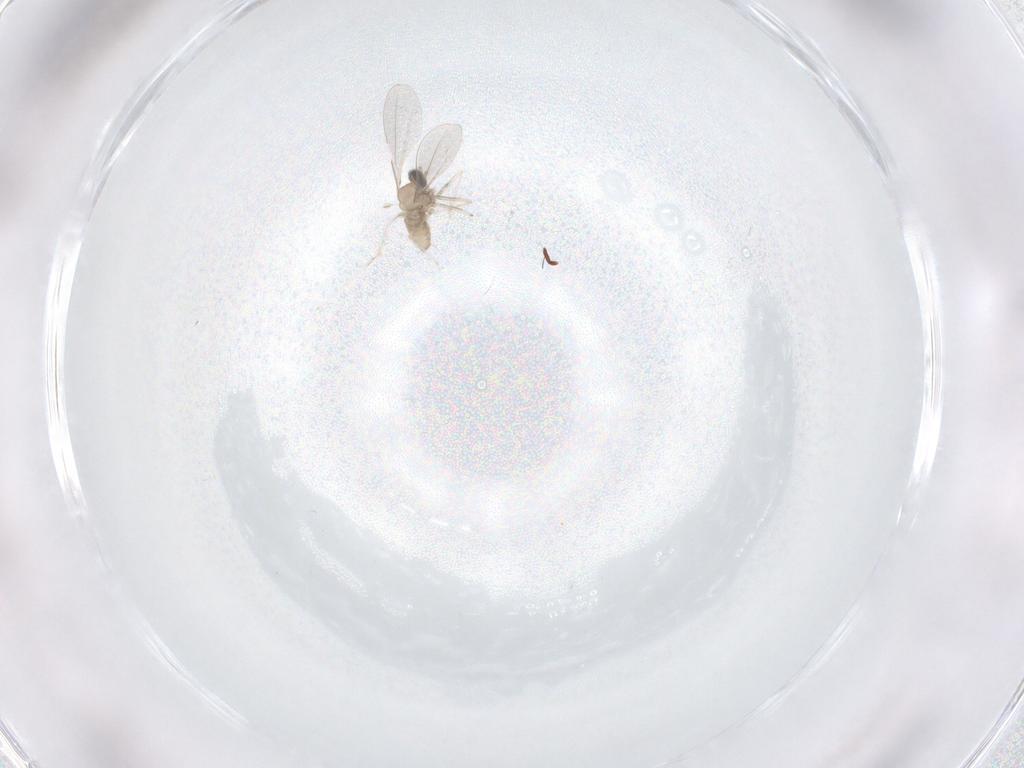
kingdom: Animalia
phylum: Arthropoda
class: Insecta
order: Diptera
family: Cecidomyiidae
